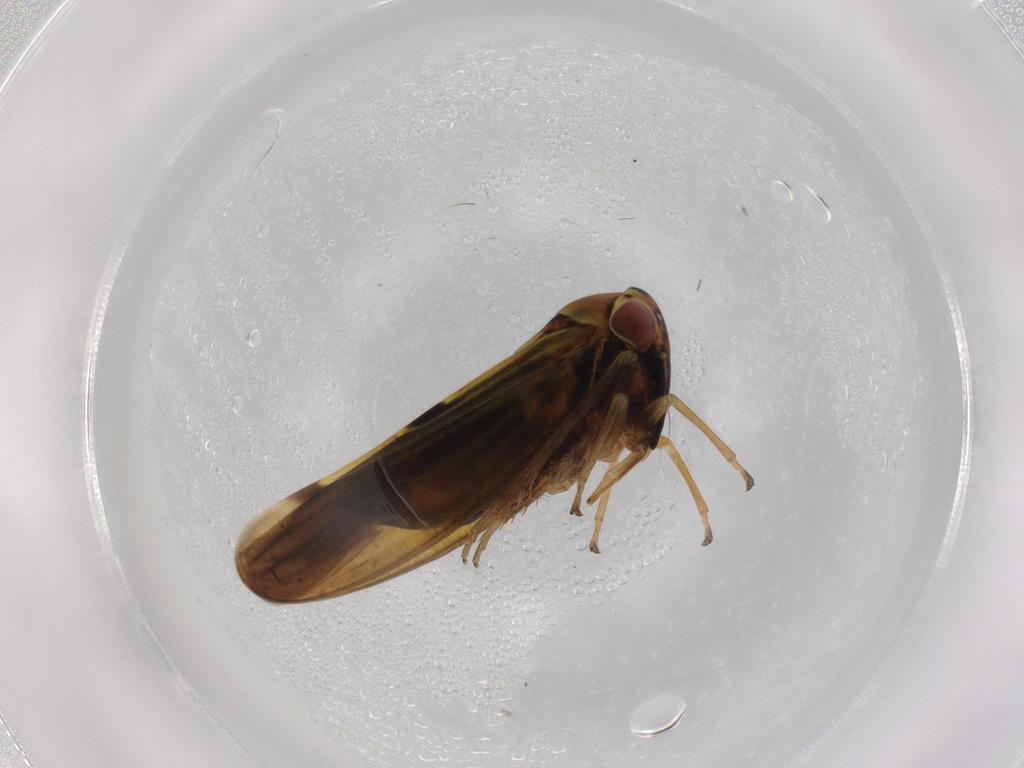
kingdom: Animalia
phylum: Arthropoda
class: Insecta
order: Hemiptera
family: Cicadellidae
